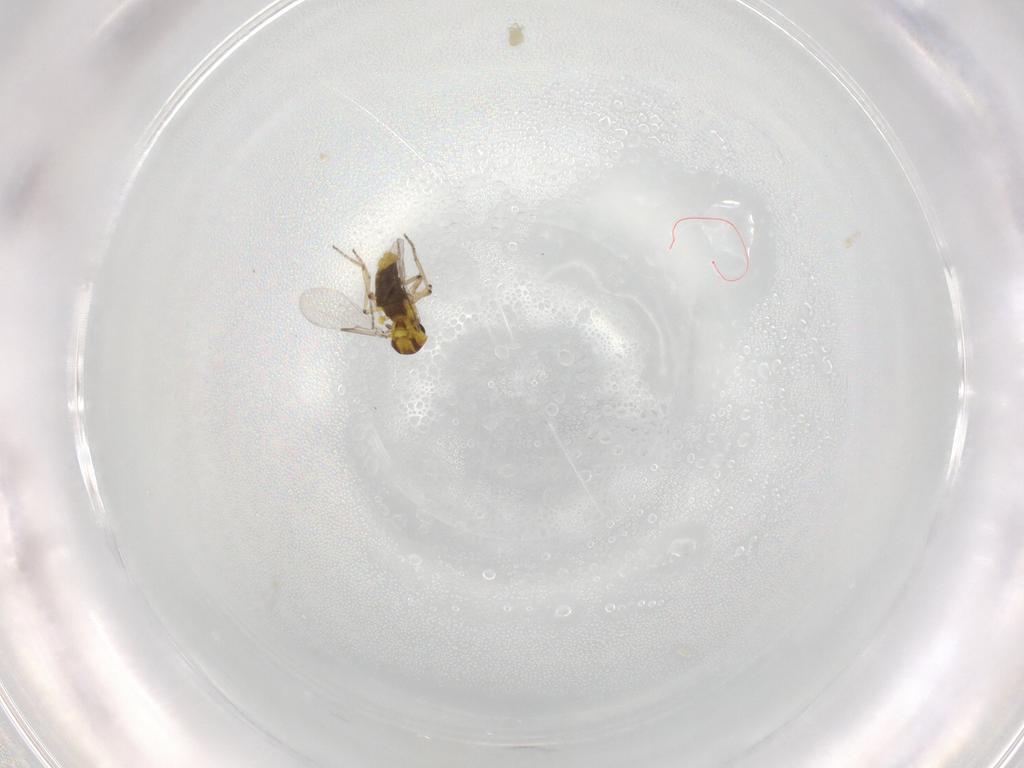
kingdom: Animalia
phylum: Arthropoda
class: Insecta
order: Diptera
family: Ceratopogonidae
